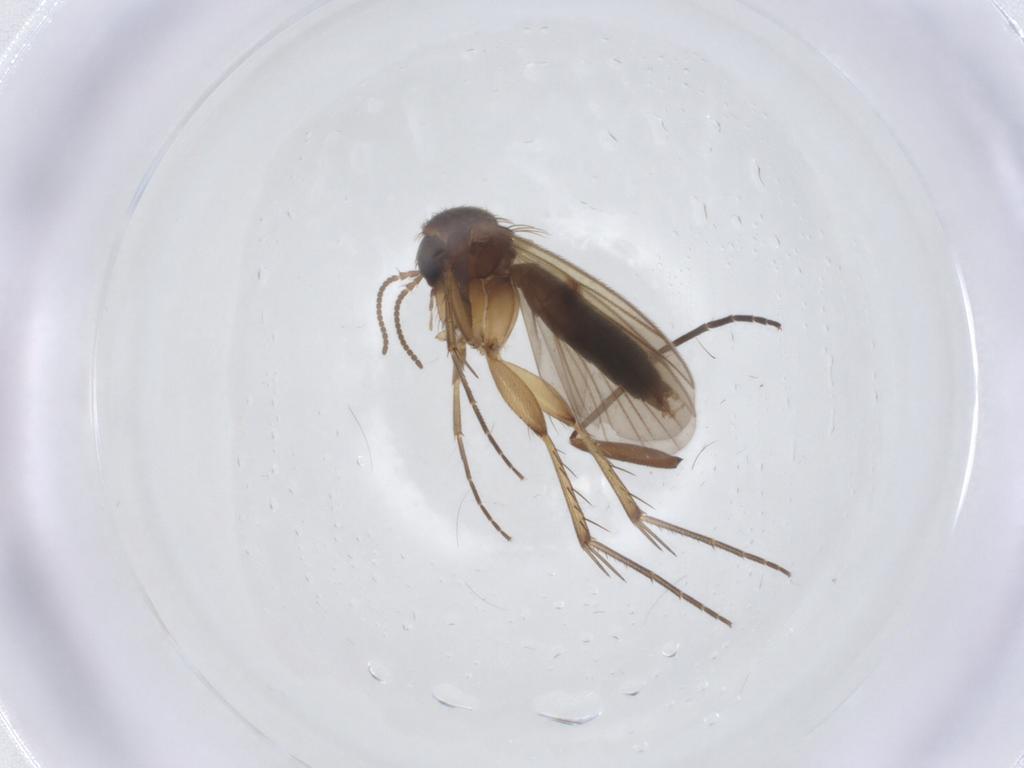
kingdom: Animalia
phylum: Arthropoda
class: Insecta
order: Diptera
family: Sciaridae
